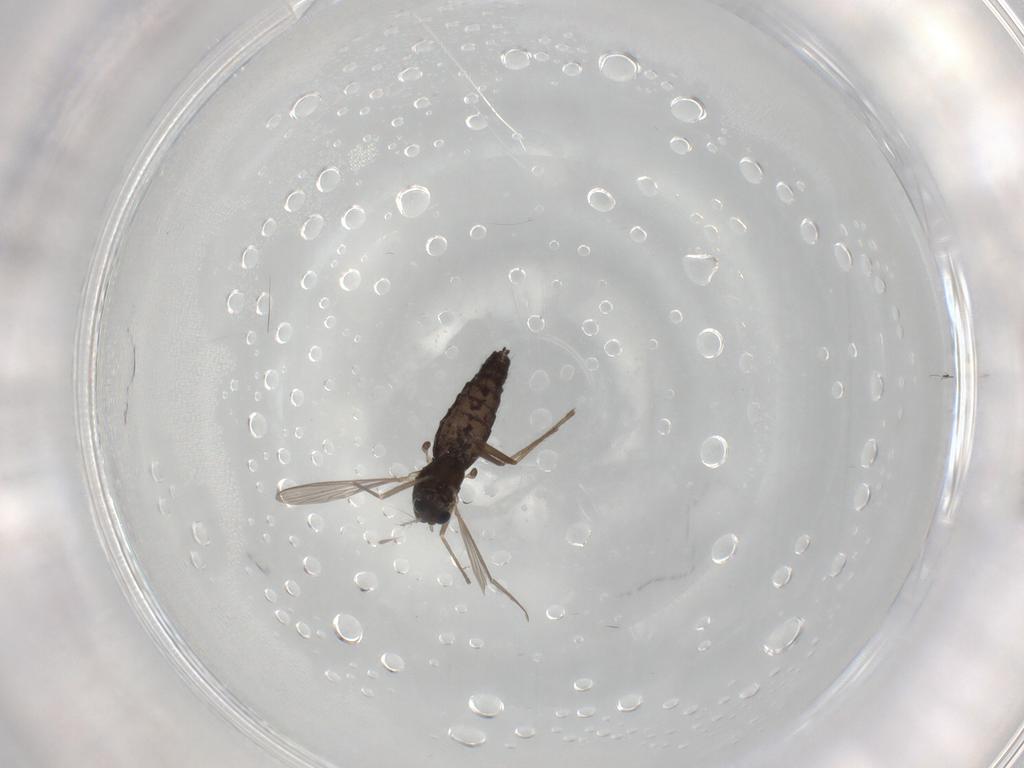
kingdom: Animalia
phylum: Arthropoda
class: Insecta
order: Diptera
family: Chironomidae
